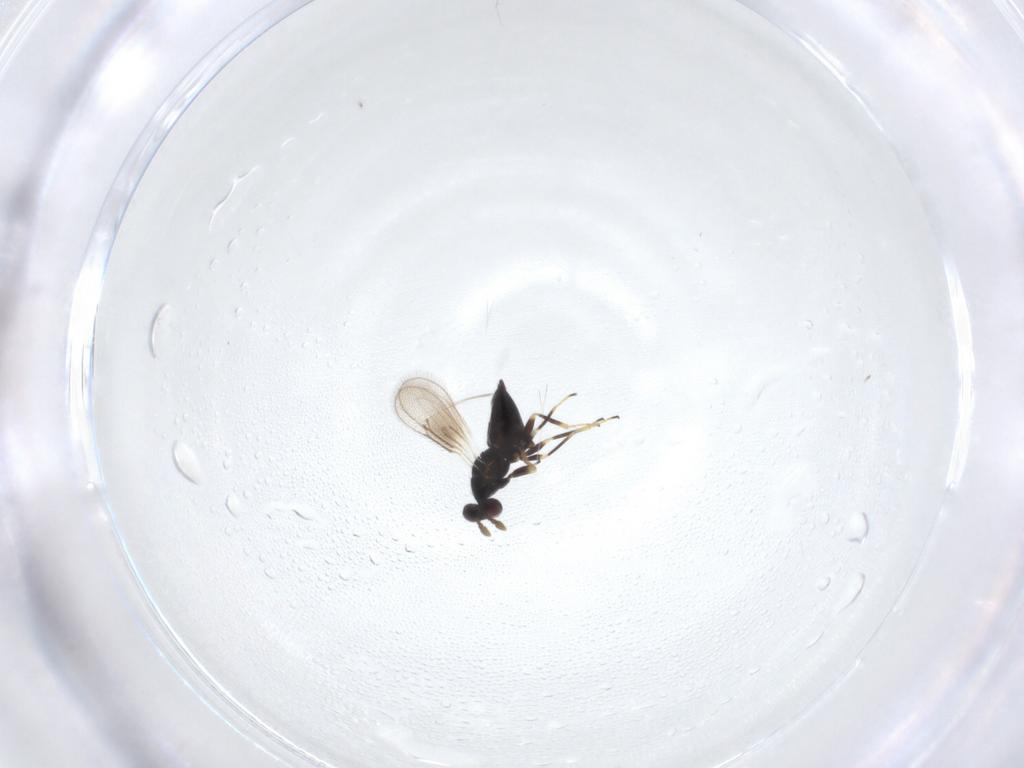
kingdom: Animalia
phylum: Arthropoda
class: Insecta
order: Hymenoptera
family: Eulophidae
